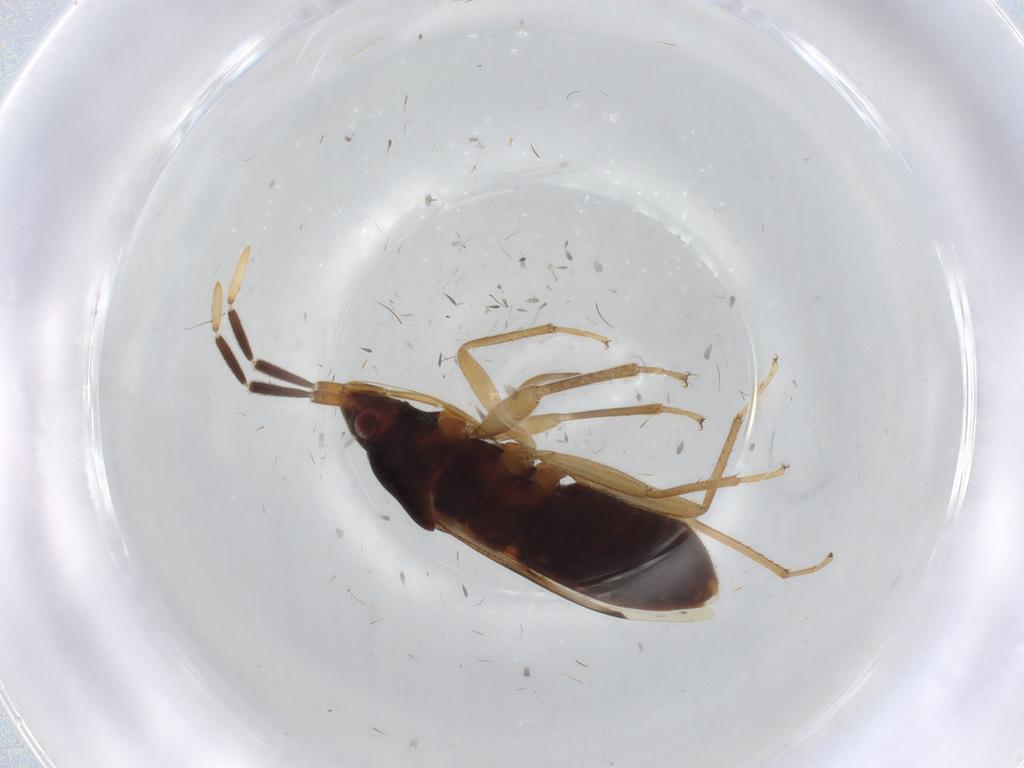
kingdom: Animalia
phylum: Arthropoda
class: Insecta
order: Hemiptera
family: Rhyparochromidae
